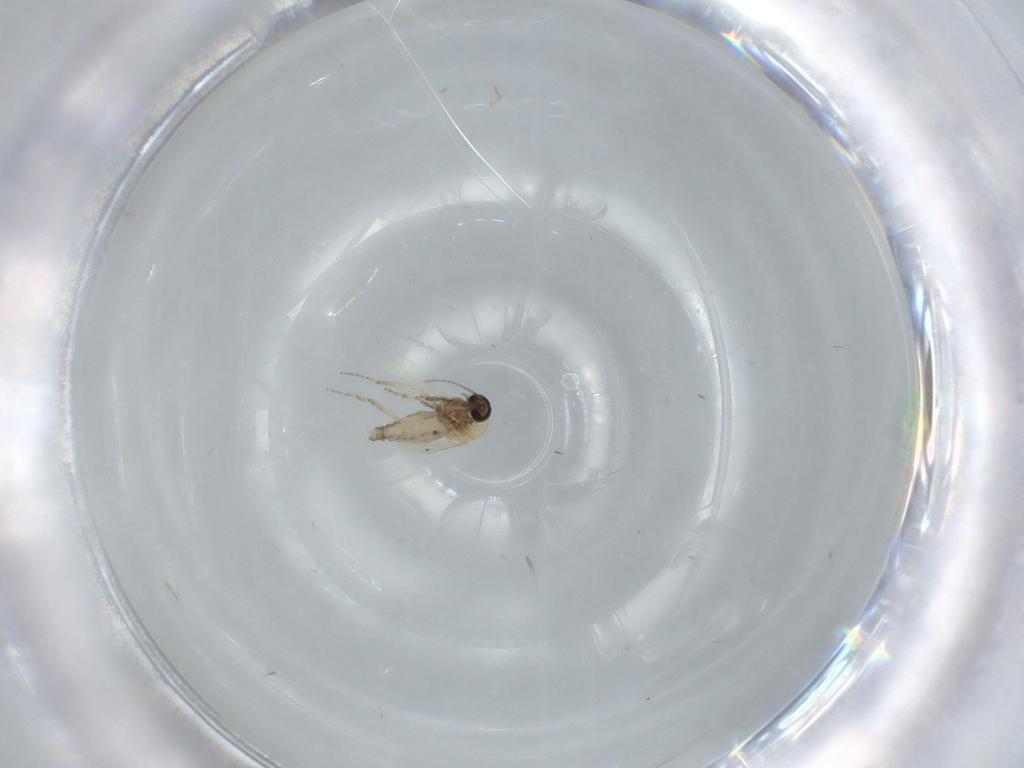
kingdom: Animalia
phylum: Arthropoda
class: Insecta
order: Diptera
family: Ceratopogonidae
